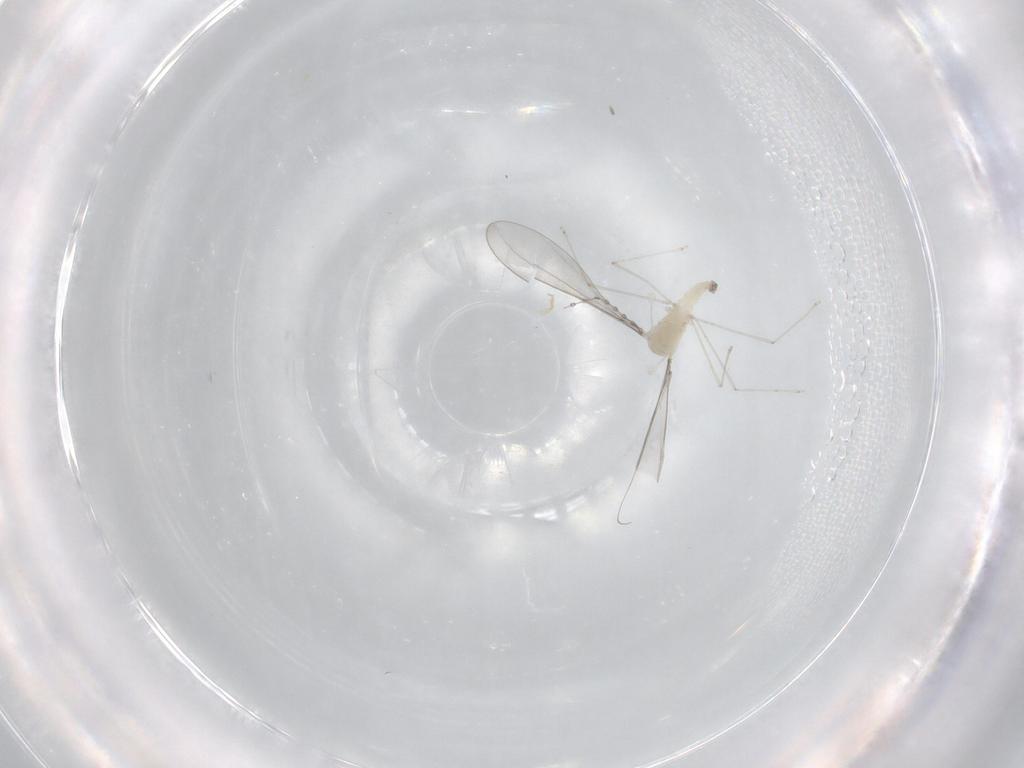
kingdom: Animalia
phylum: Arthropoda
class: Insecta
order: Diptera
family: Cecidomyiidae
